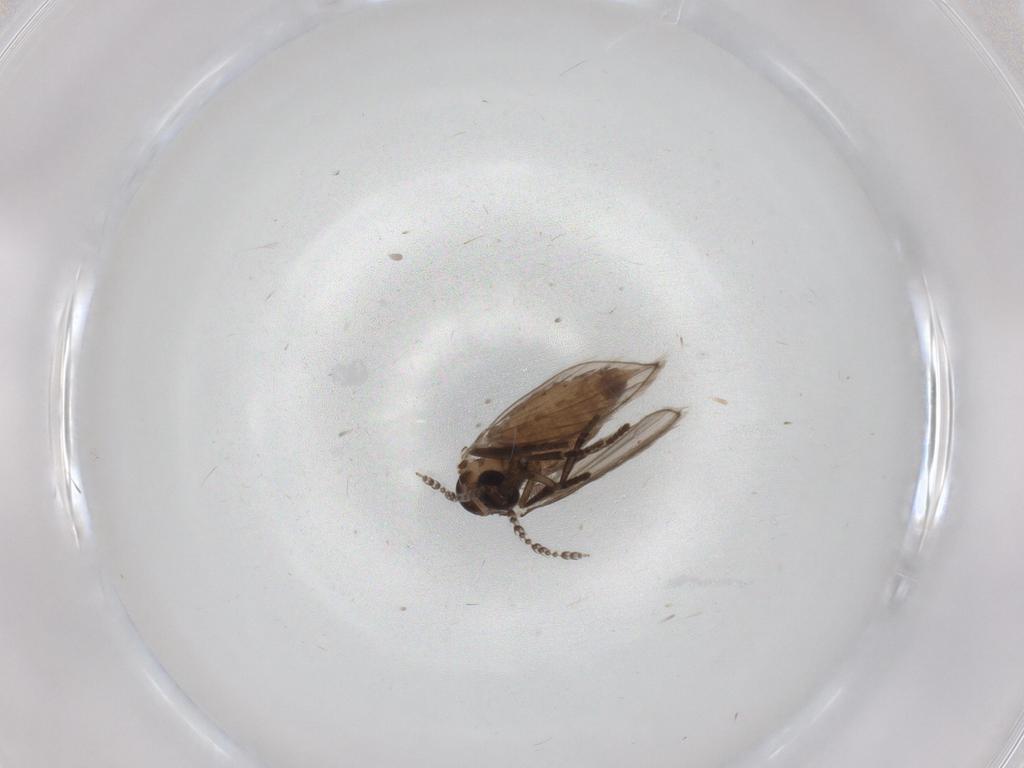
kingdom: Animalia
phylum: Arthropoda
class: Insecta
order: Diptera
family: Psychodidae
